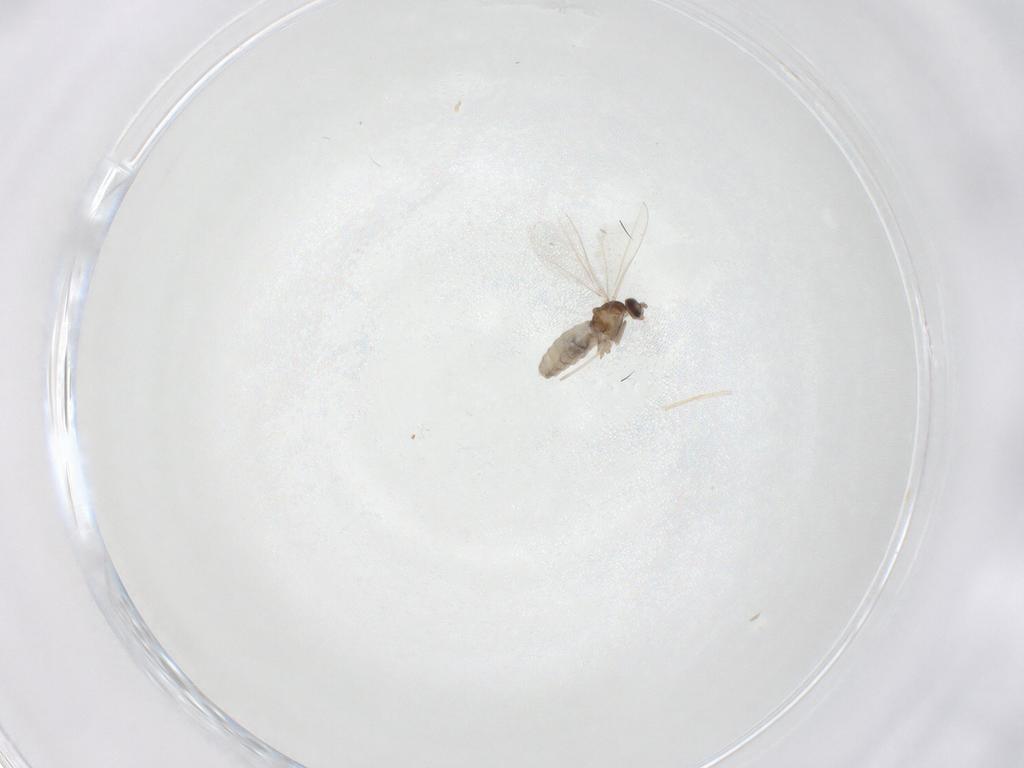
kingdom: Animalia
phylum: Arthropoda
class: Insecta
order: Diptera
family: Cecidomyiidae
